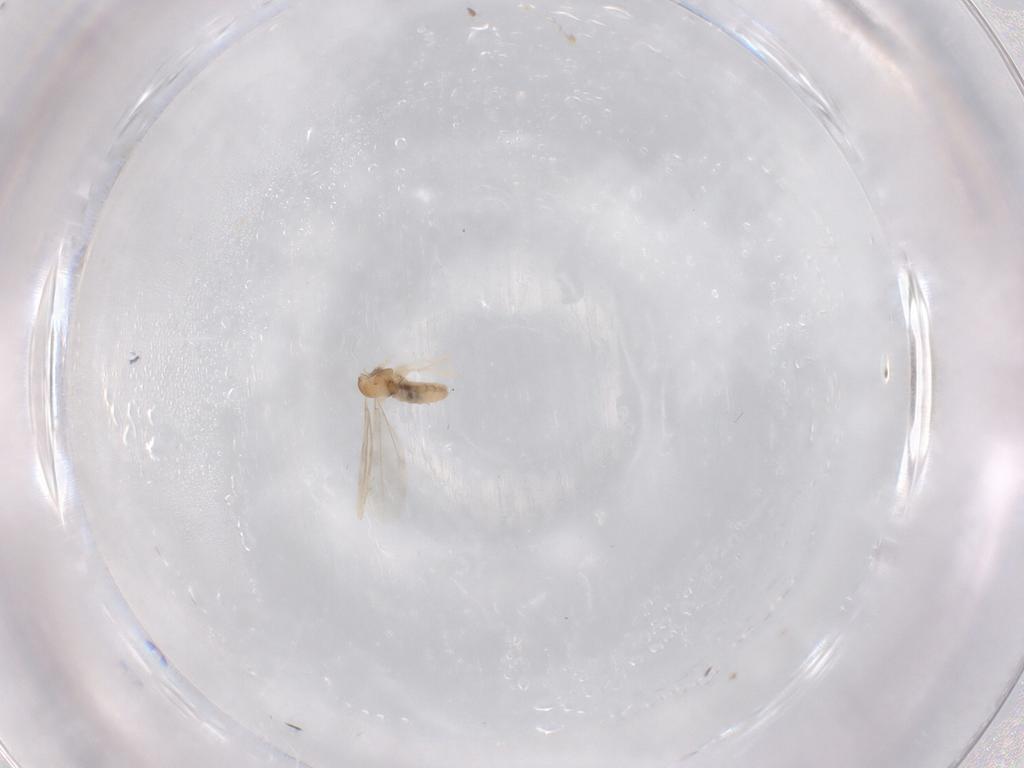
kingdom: Animalia
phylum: Arthropoda
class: Insecta
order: Diptera
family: Cecidomyiidae
